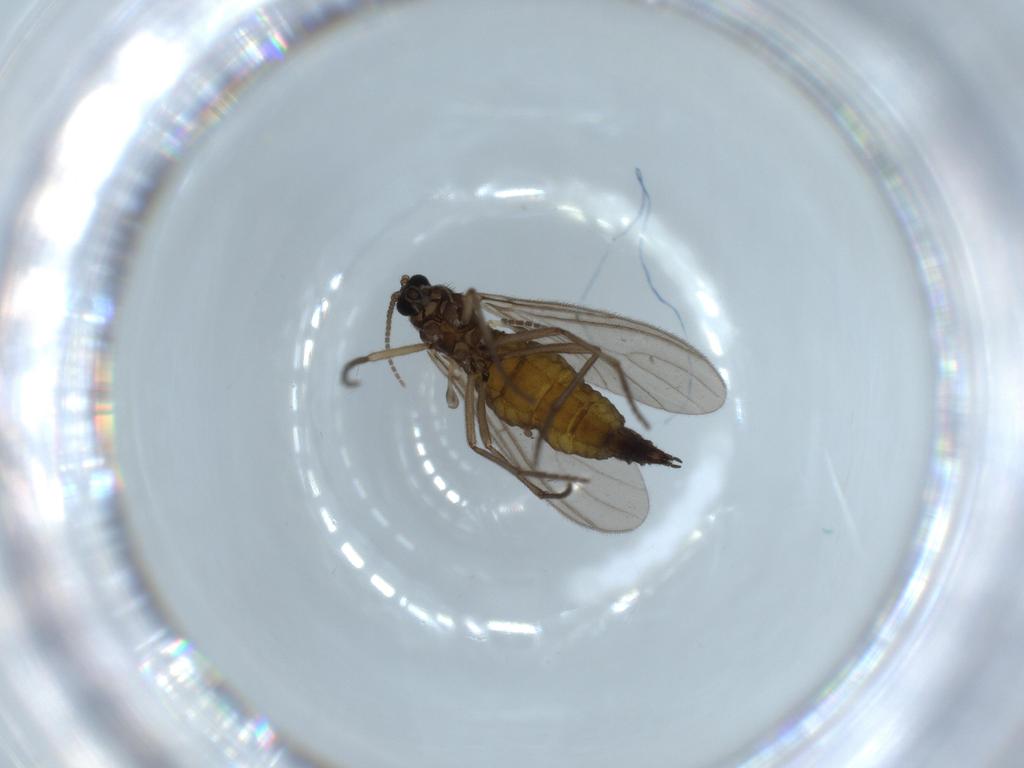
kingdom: Animalia
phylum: Arthropoda
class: Insecta
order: Diptera
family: Sciaridae
